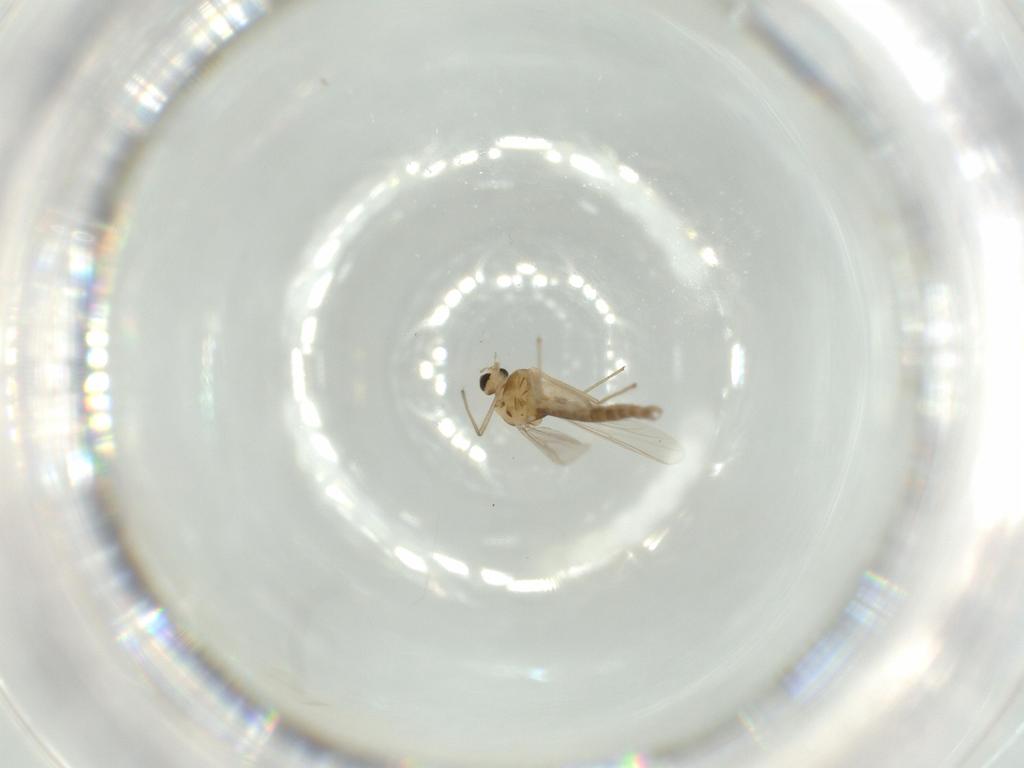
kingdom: Animalia
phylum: Arthropoda
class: Insecta
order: Diptera
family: Chironomidae
